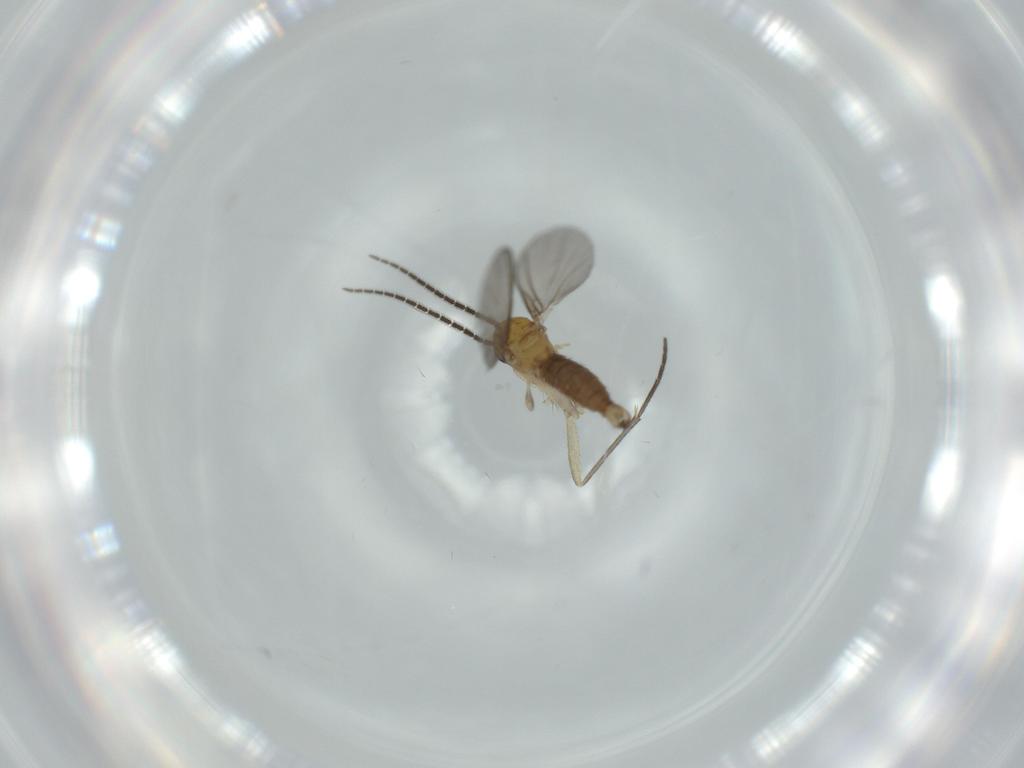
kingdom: Animalia
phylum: Arthropoda
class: Insecta
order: Diptera
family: Sciaridae
